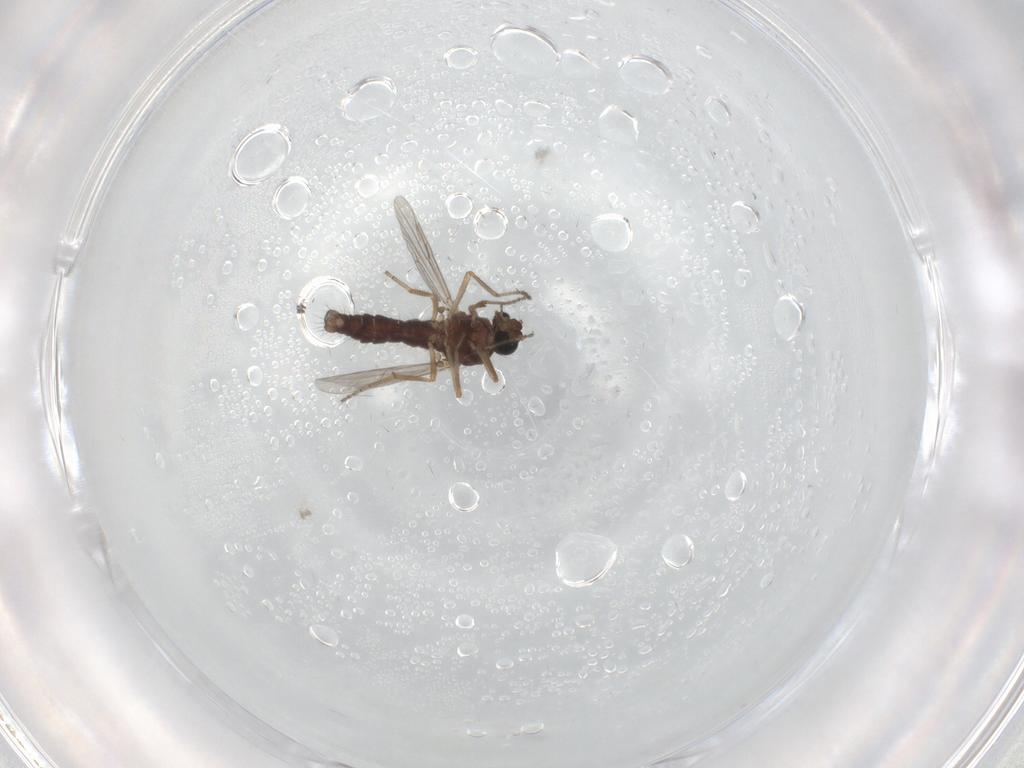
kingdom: Animalia
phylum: Arthropoda
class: Insecta
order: Diptera
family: Ceratopogonidae
